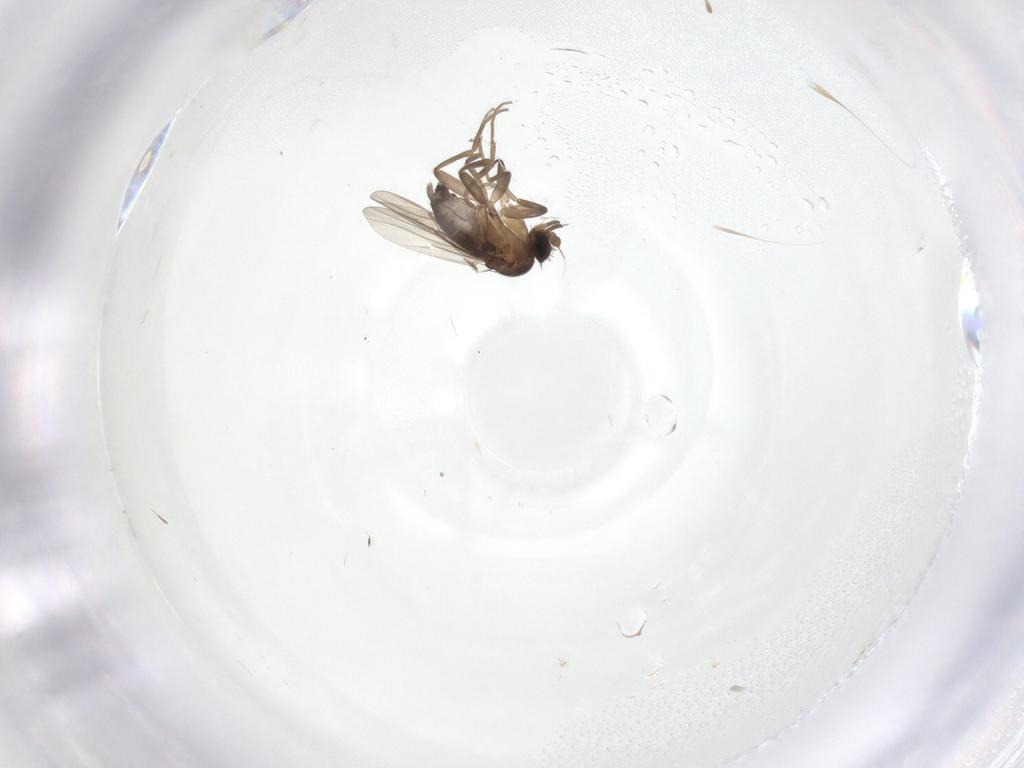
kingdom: Animalia
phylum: Arthropoda
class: Insecta
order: Diptera
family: Phoridae
